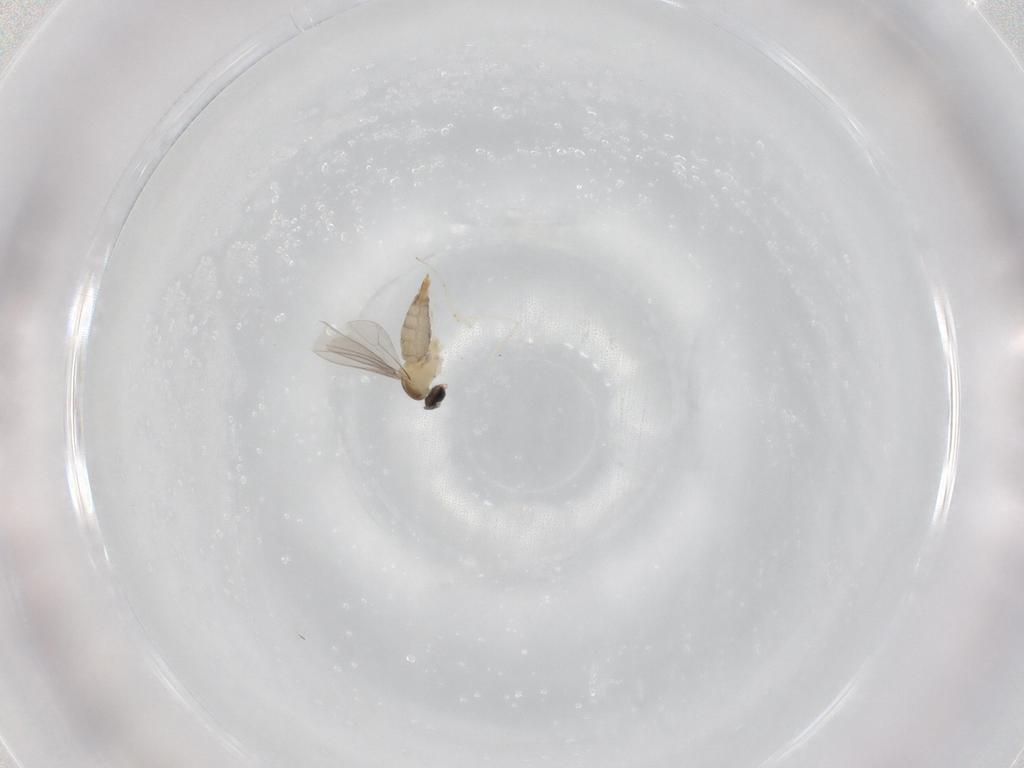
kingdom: Animalia
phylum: Arthropoda
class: Insecta
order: Diptera
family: Cecidomyiidae
